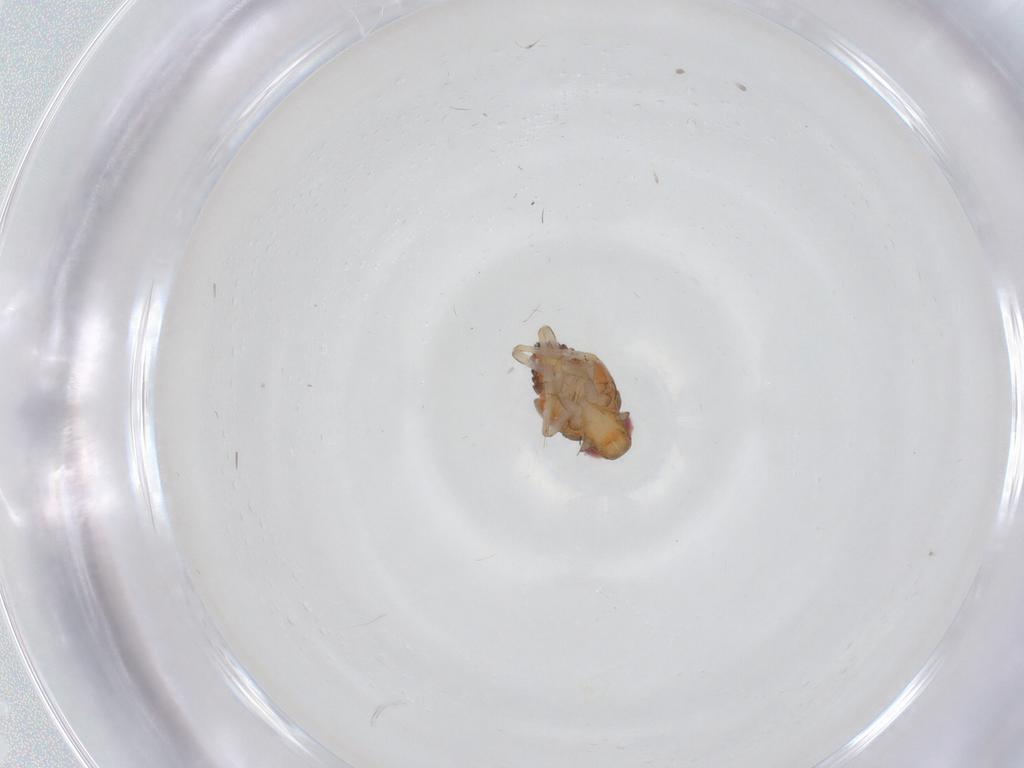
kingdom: Animalia
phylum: Arthropoda
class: Insecta
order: Hemiptera
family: Issidae
